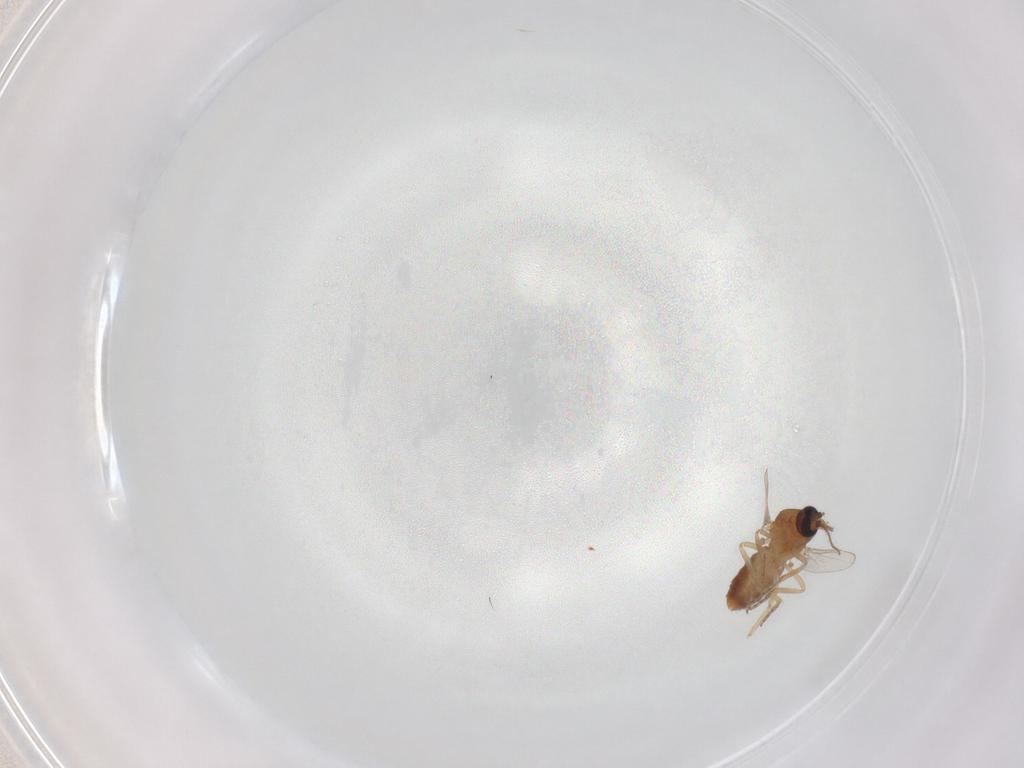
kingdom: Animalia
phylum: Arthropoda
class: Insecta
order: Diptera
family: Ceratopogonidae
